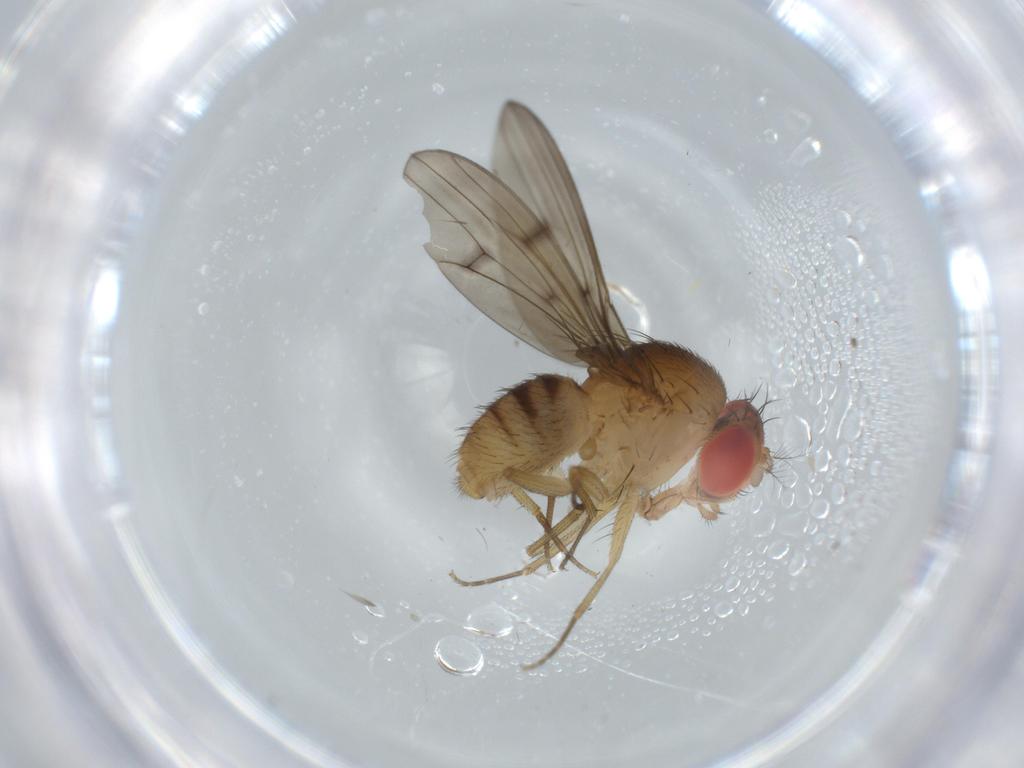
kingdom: Animalia
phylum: Arthropoda
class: Insecta
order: Diptera
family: Drosophilidae
